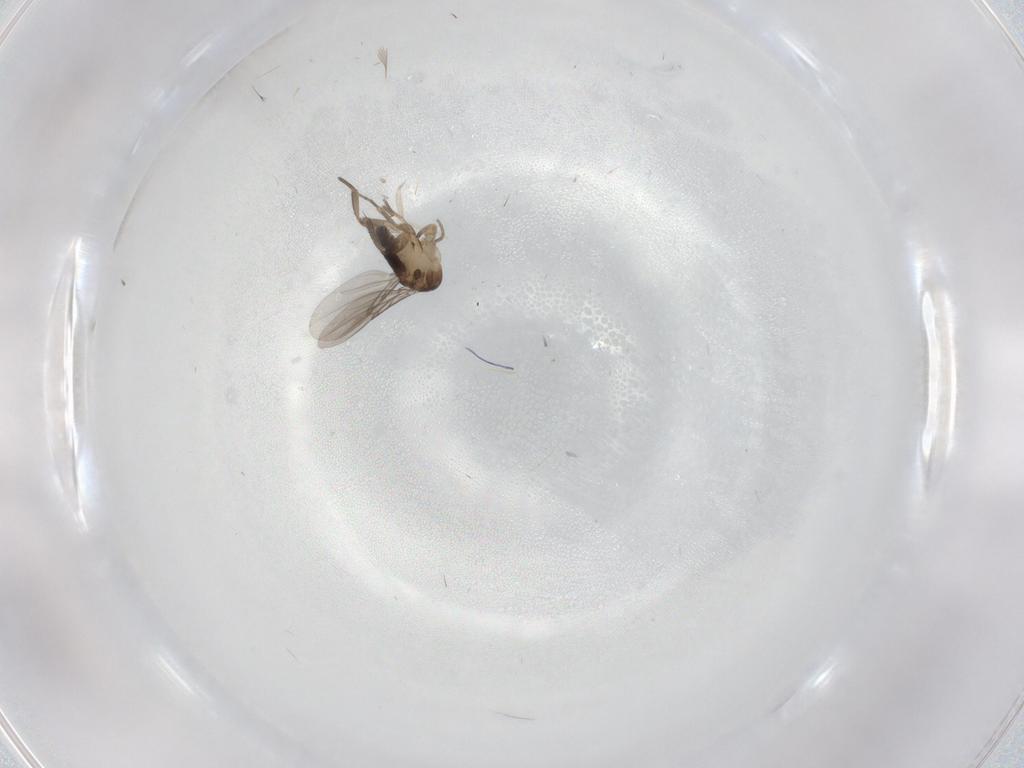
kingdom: Animalia
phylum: Arthropoda
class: Insecta
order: Diptera
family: Phoridae
